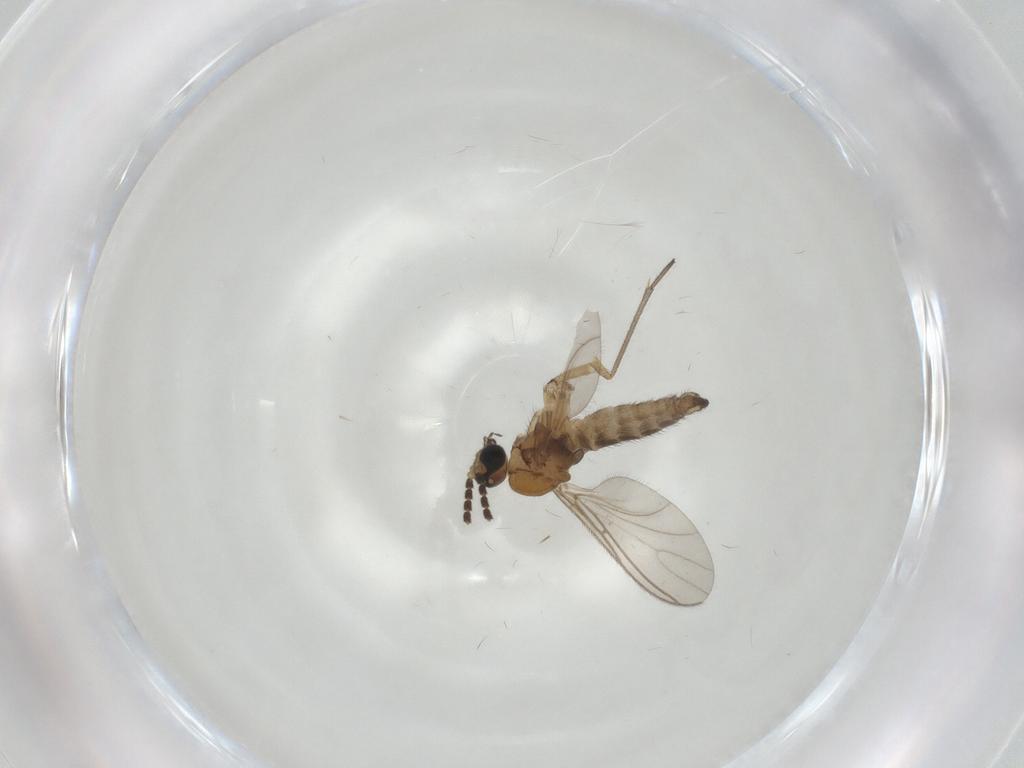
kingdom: Animalia
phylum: Arthropoda
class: Insecta
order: Diptera
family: Sciaridae
